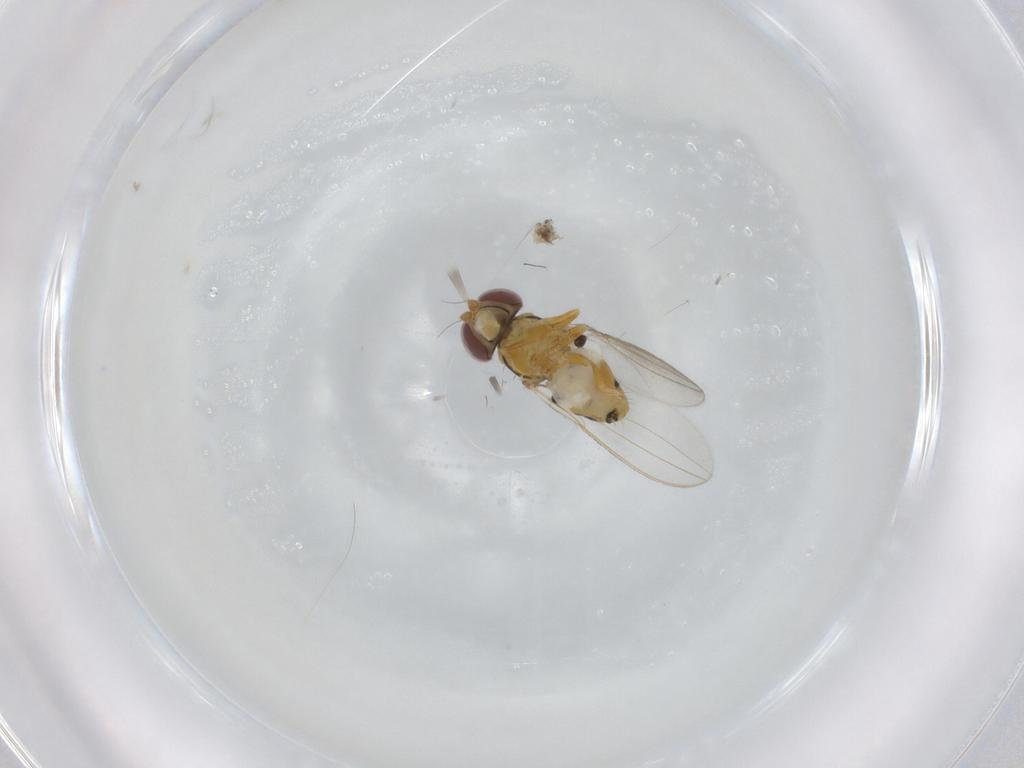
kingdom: Animalia
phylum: Arthropoda
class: Insecta
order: Diptera
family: Asteiidae
